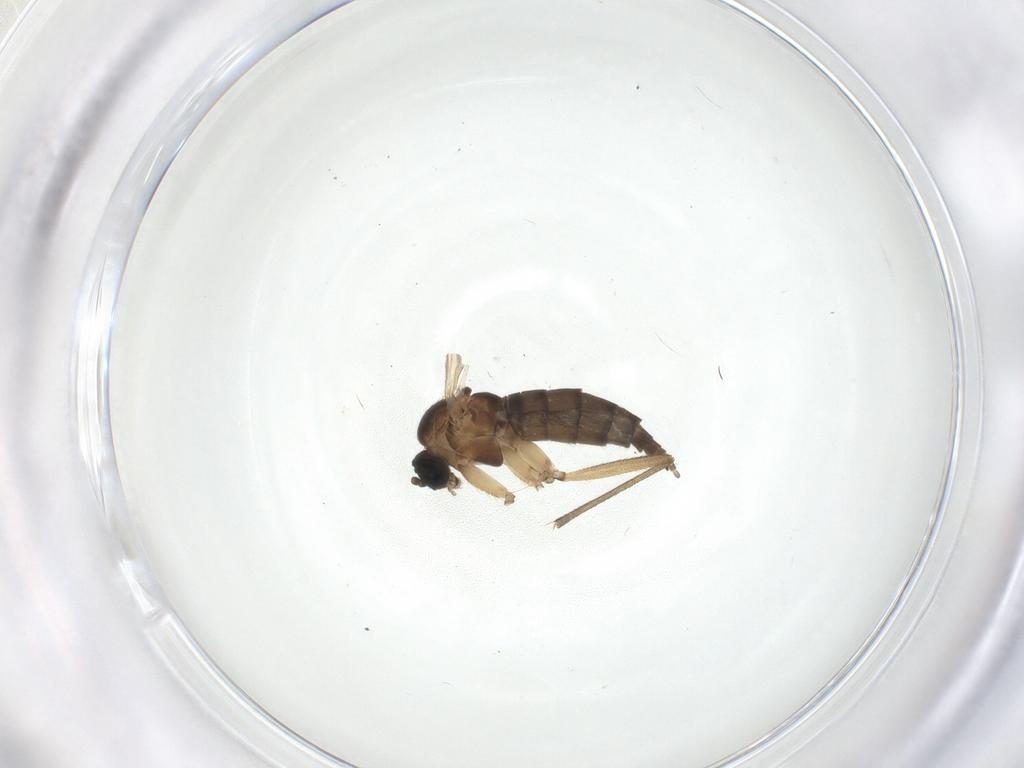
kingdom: Animalia
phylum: Arthropoda
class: Insecta
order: Diptera
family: Sciaridae
